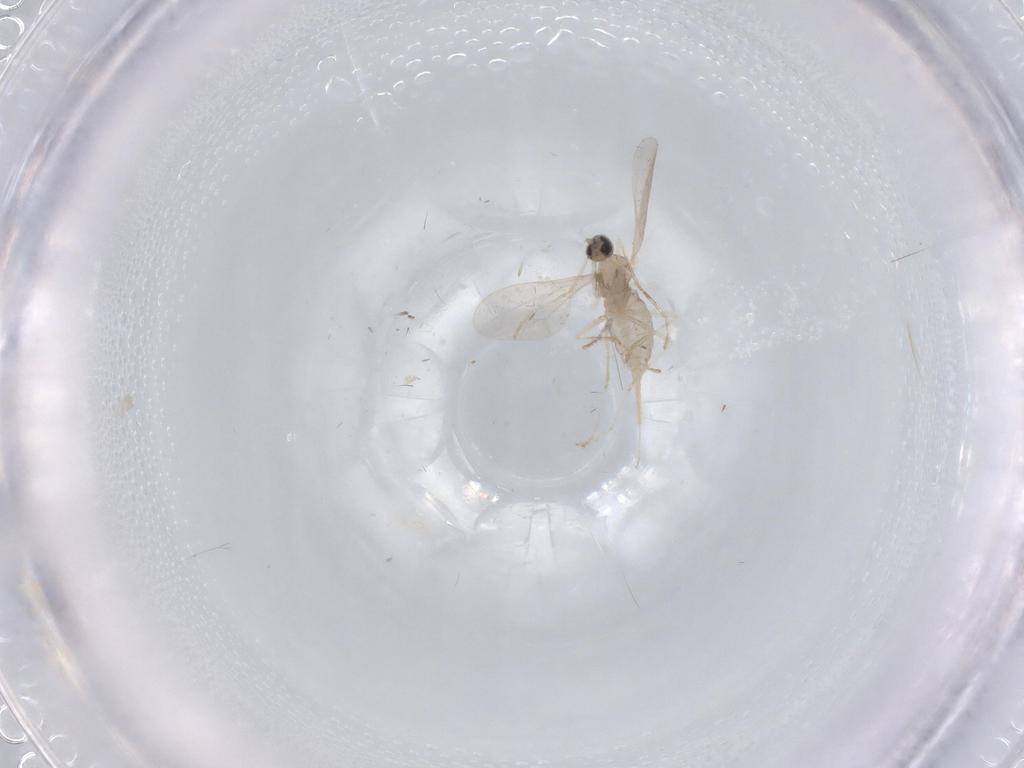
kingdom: Animalia
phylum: Arthropoda
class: Insecta
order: Diptera
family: Cecidomyiidae
